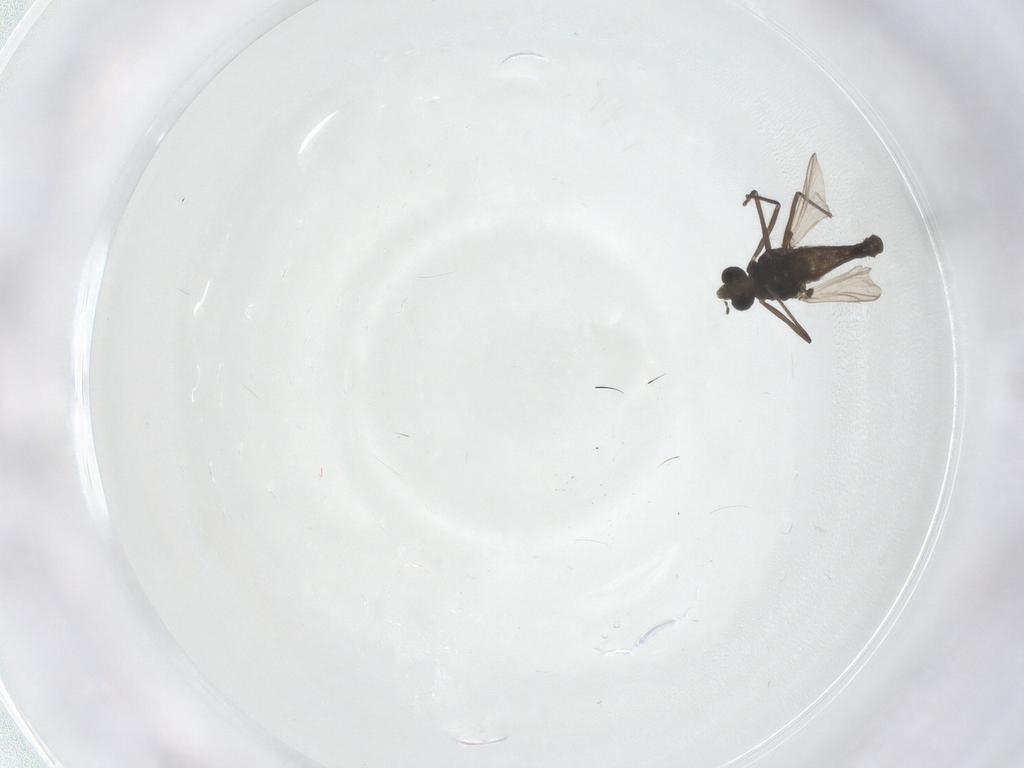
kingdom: Animalia
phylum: Arthropoda
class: Insecta
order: Diptera
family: Chironomidae
